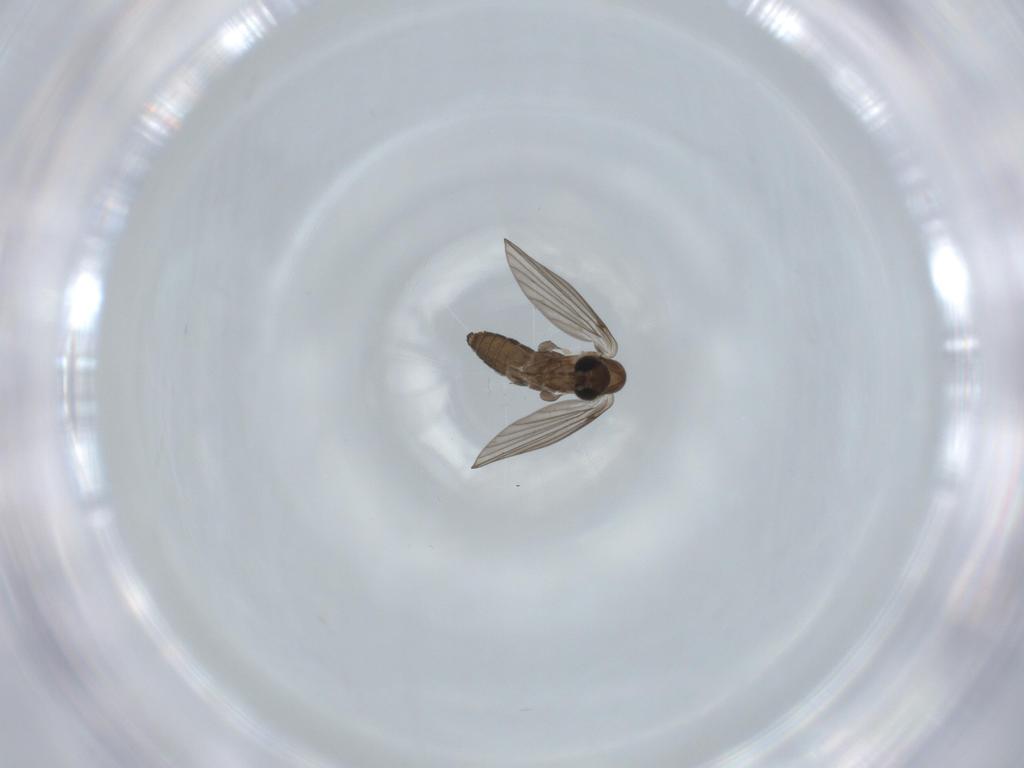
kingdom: Animalia
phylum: Arthropoda
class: Insecta
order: Diptera
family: Psychodidae
